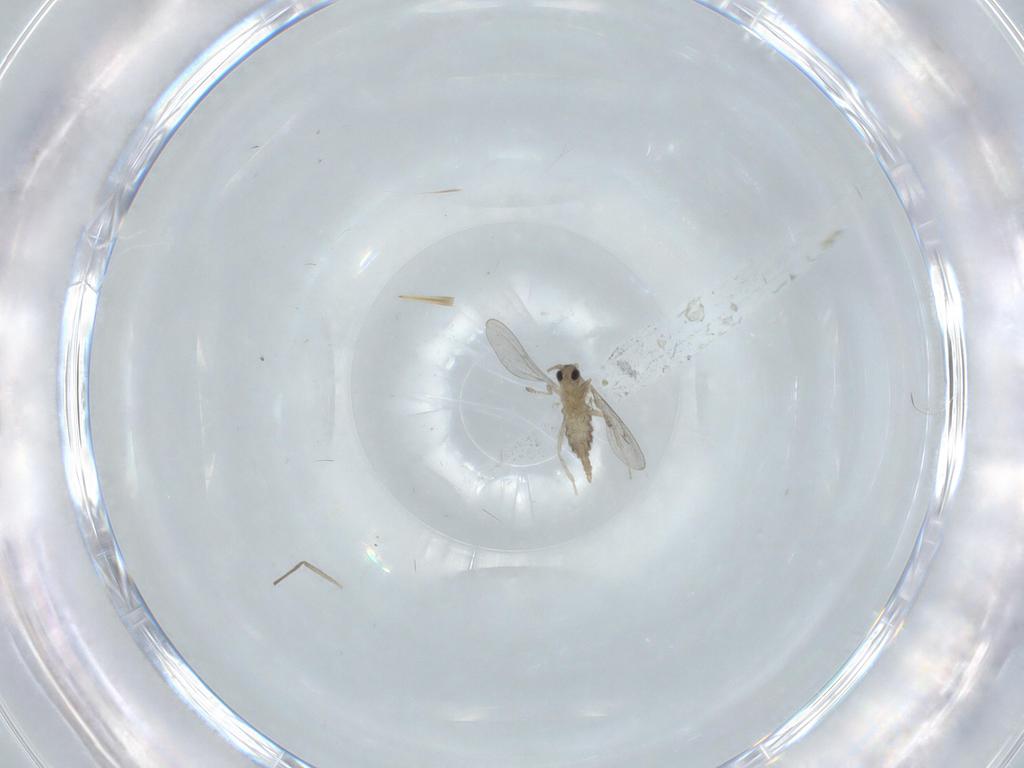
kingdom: Animalia
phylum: Arthropoda
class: Insecta
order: Diptera
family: Cecidomyiidae
